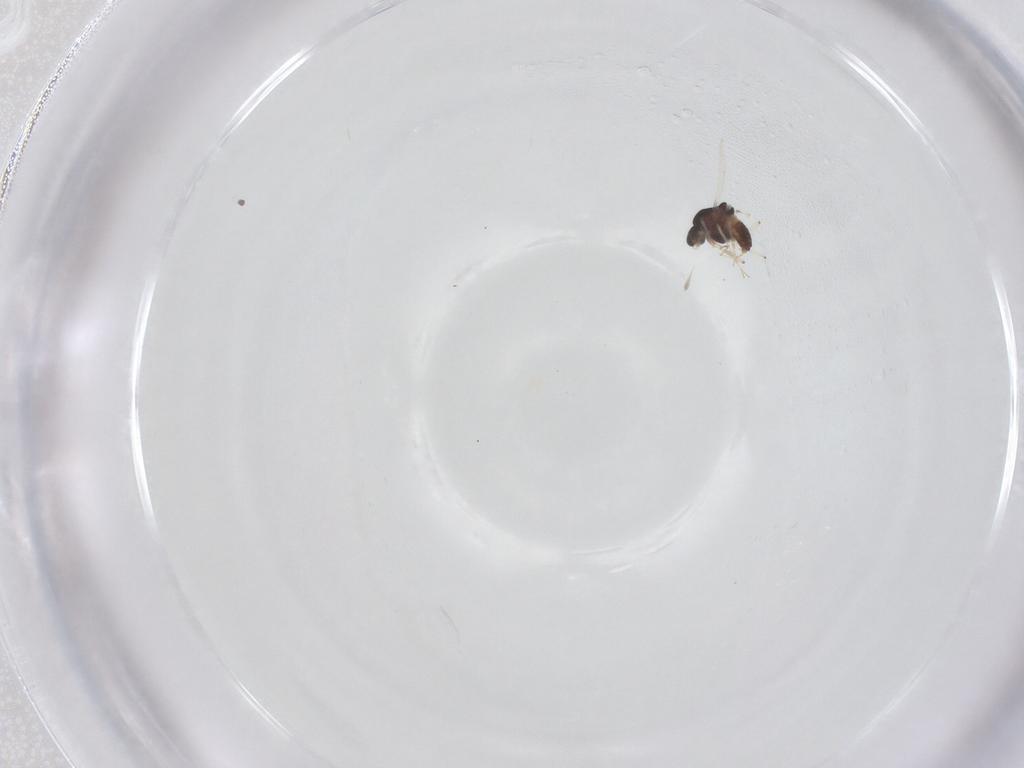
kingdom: Animalia
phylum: Arthropoda
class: Insecta
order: Diptera
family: Chironomidae
